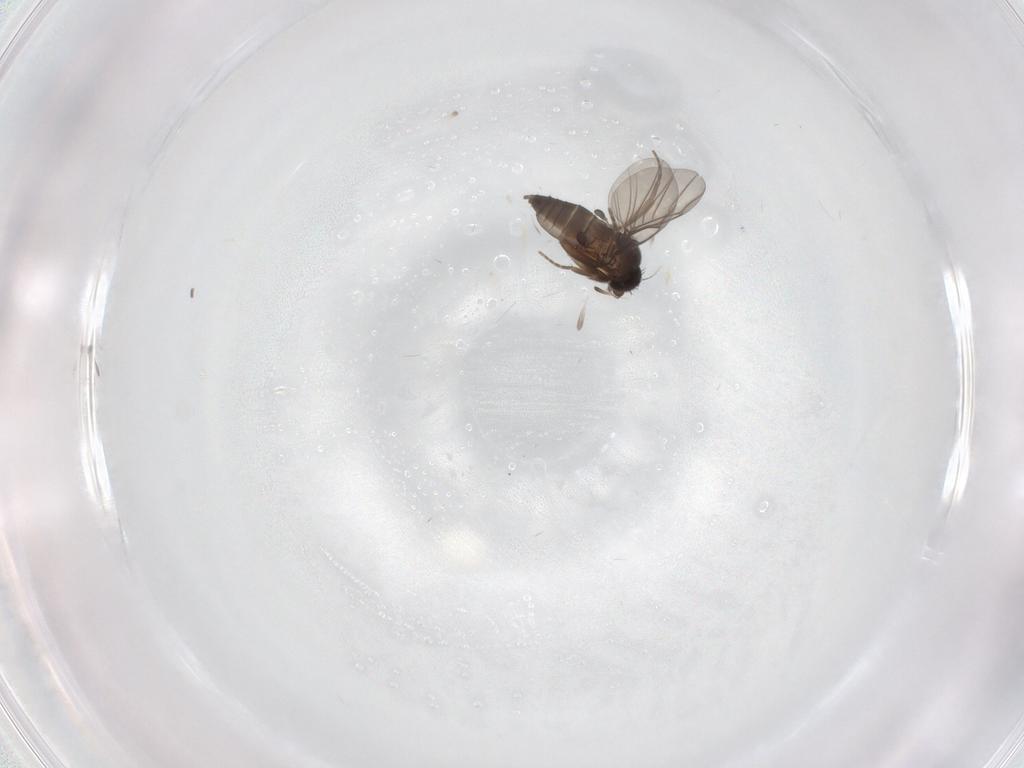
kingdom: Animalia
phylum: Arthropoda
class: Insecta
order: Diptera
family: Phoridae
